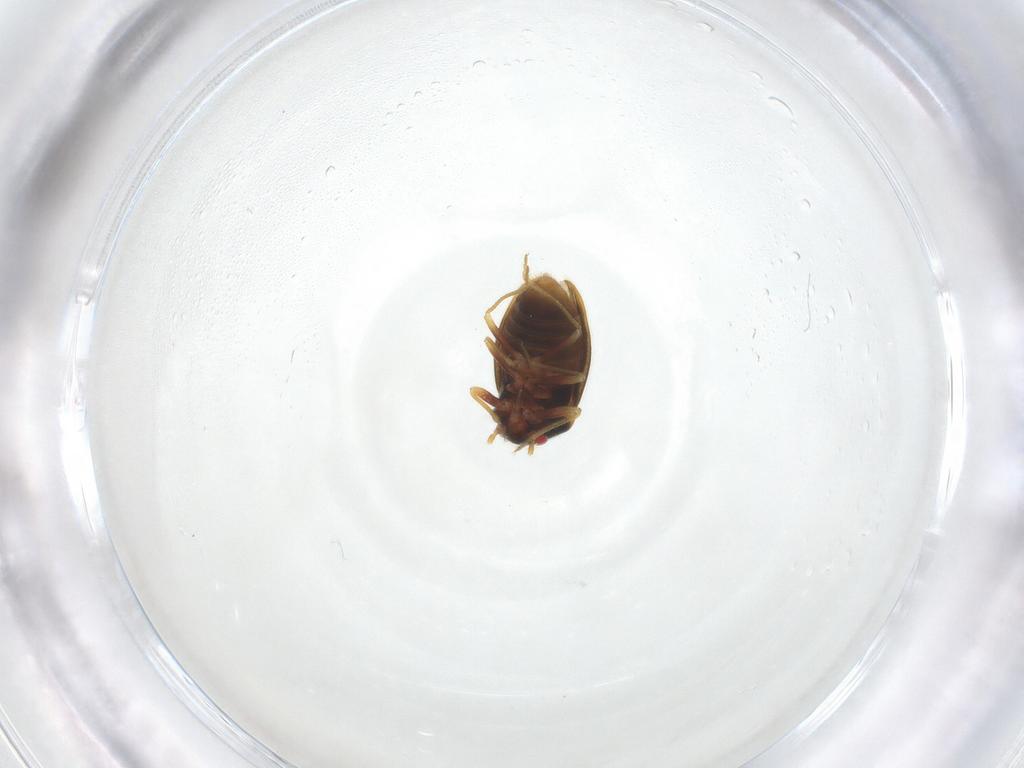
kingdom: Animalia
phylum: Arthropoda
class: Insecta
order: Hemiptera
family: Schizopteridae
